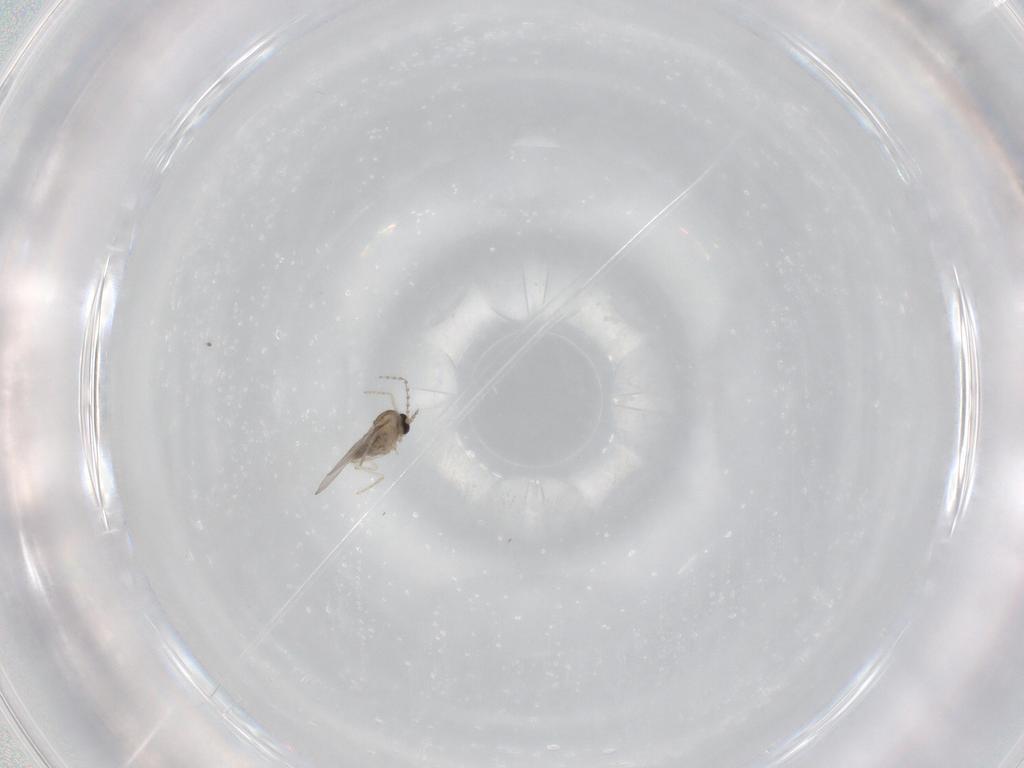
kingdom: Animalia
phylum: Arthropoda
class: Insecta
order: Diptera
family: Cecidomyiidae
